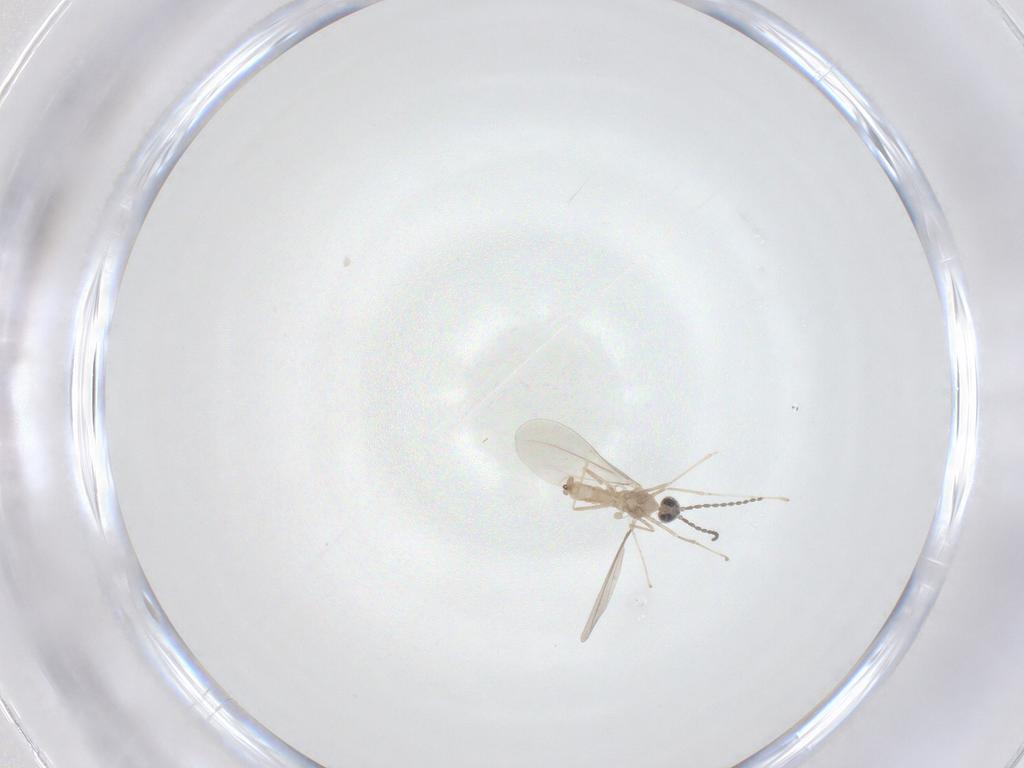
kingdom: Animalia
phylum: Arthropoda
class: Insecta
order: Diptera
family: Cecidomyiidae
